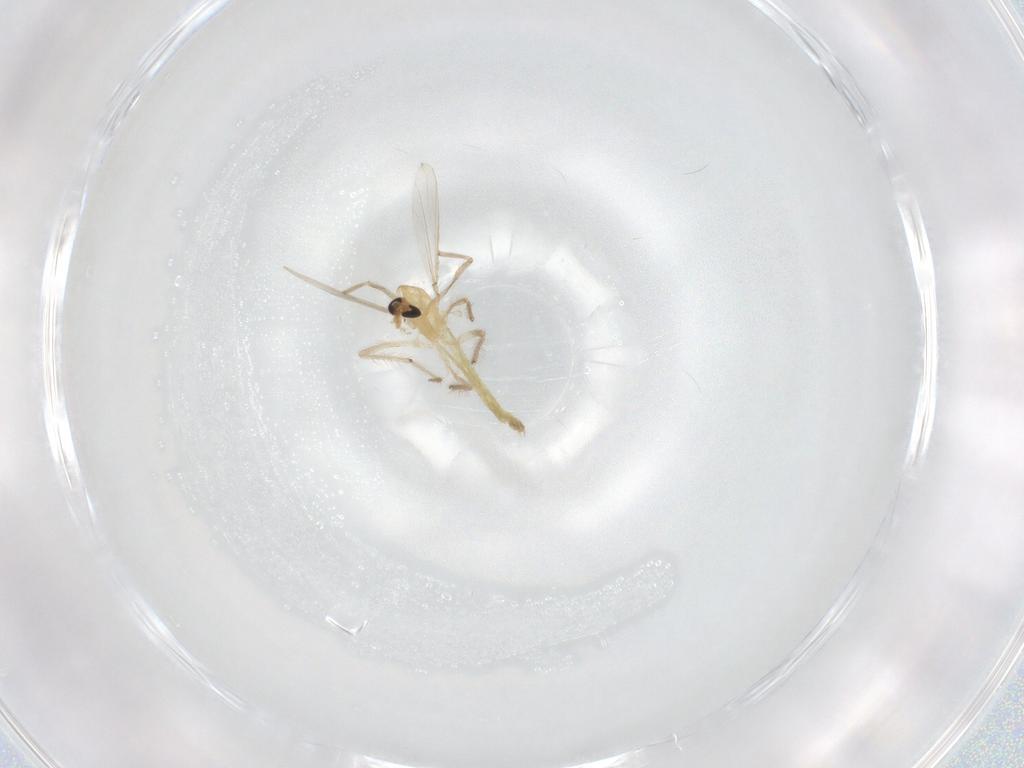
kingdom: Animalia
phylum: Arthropoda
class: Insecta
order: Diptera
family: Chironomidae
